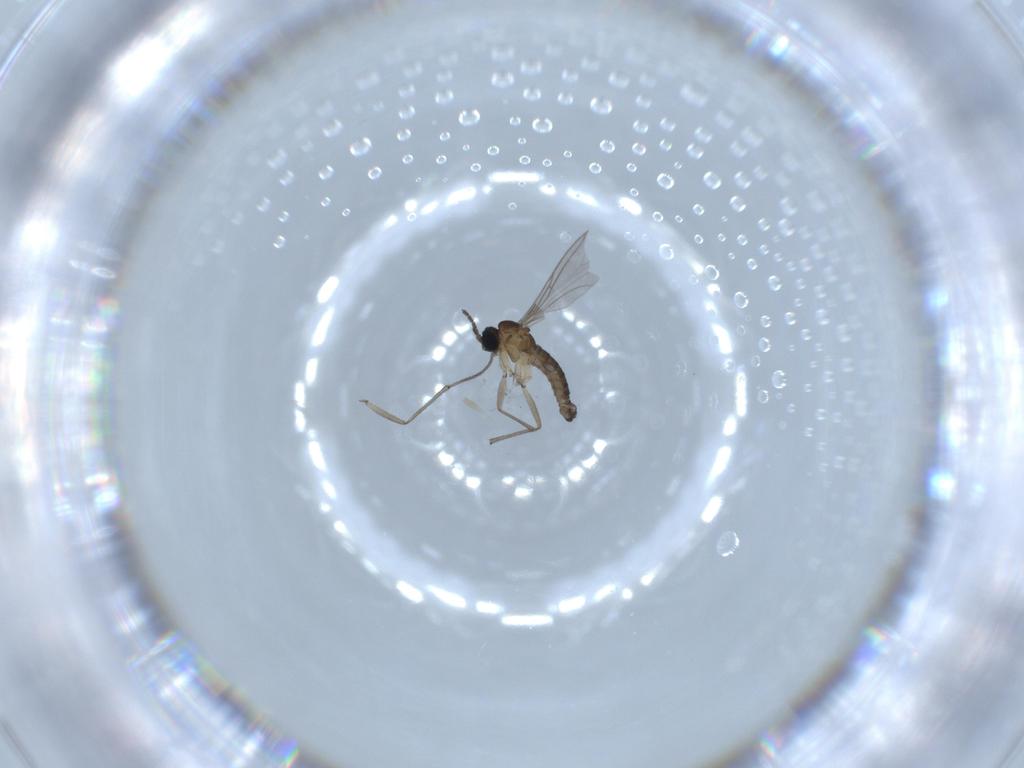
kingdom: Animalia
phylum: Arthropoda
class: Insecta
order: Diptera
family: Sciaridae
